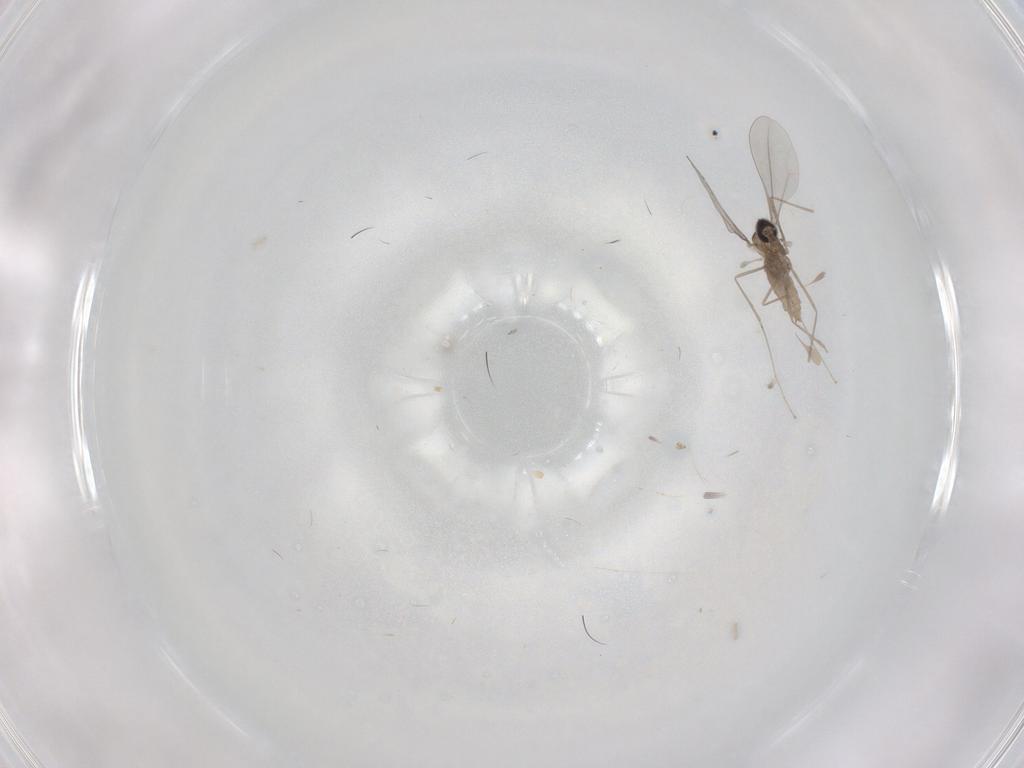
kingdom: Animalia
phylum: Arthropoda
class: Insecta
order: Diptera
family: Cecidomyiidae
